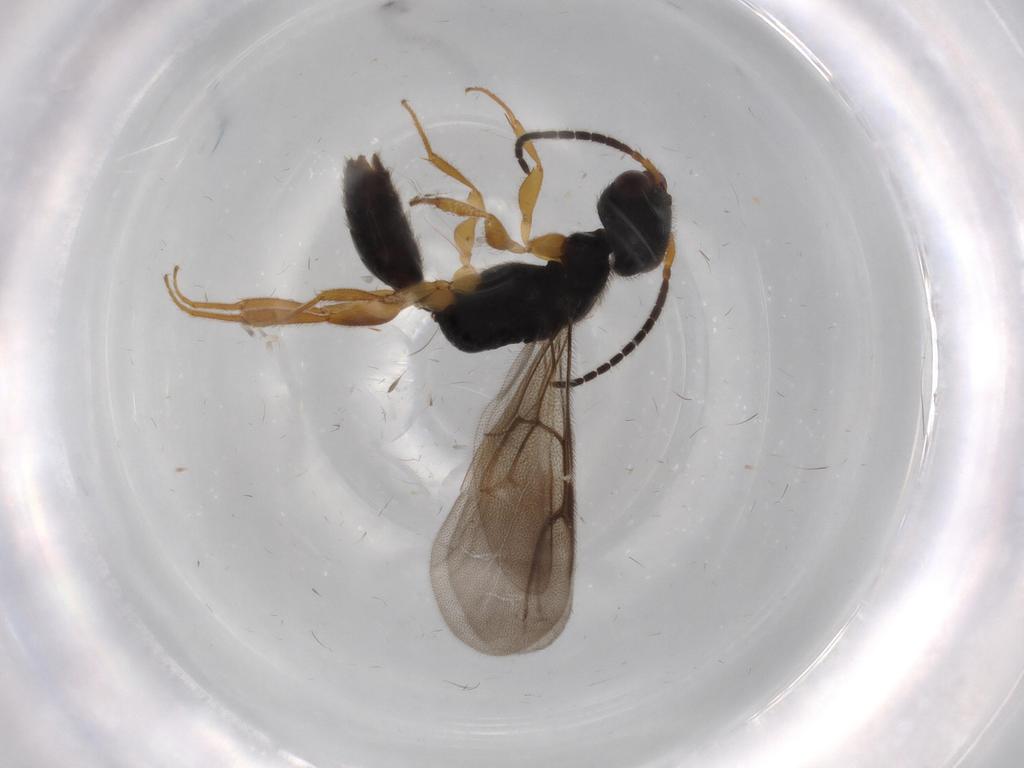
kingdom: Animalia
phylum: Arthropoda
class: Insecta
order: Hymenoptera
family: Bethylidae
